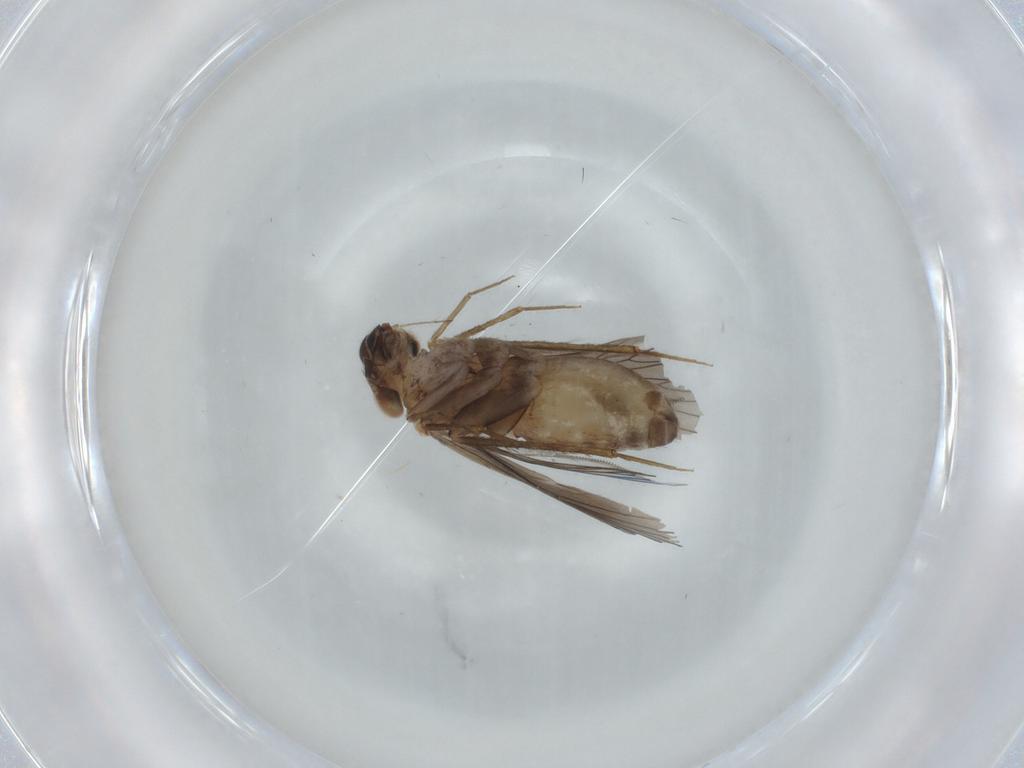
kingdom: Animalia
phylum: Arthropoda
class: Insecta
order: Psocodea
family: Lepidopsocidae
